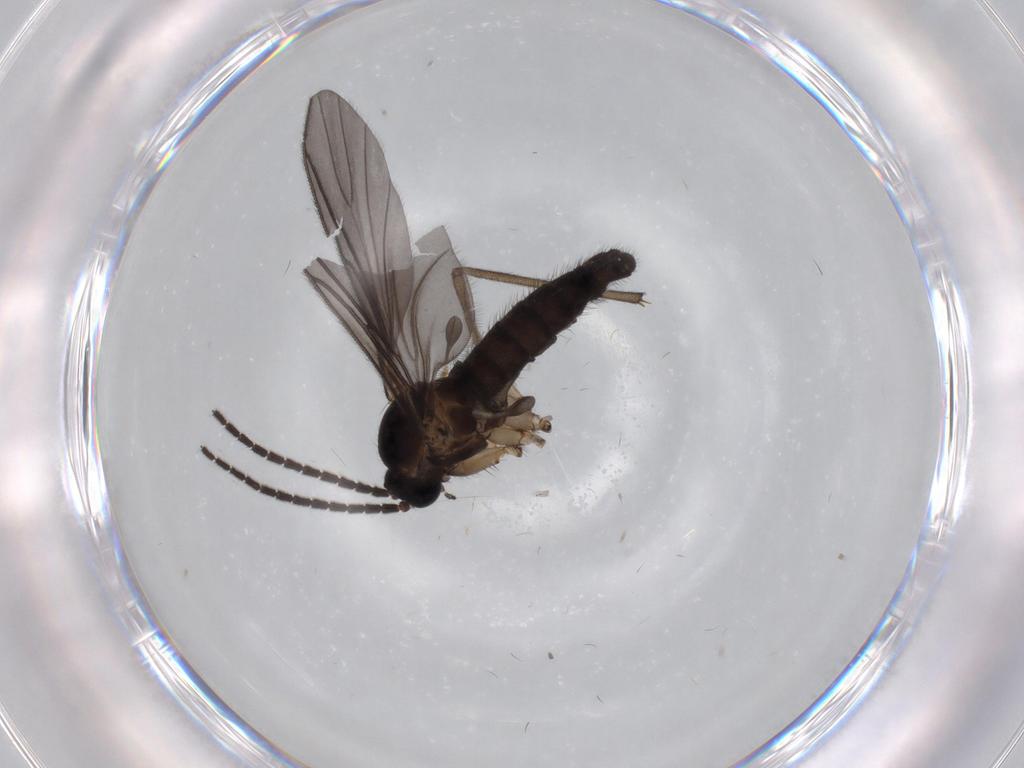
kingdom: Animalia
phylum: Arthropoda
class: Insecta
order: Diptera
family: Sciaridae
